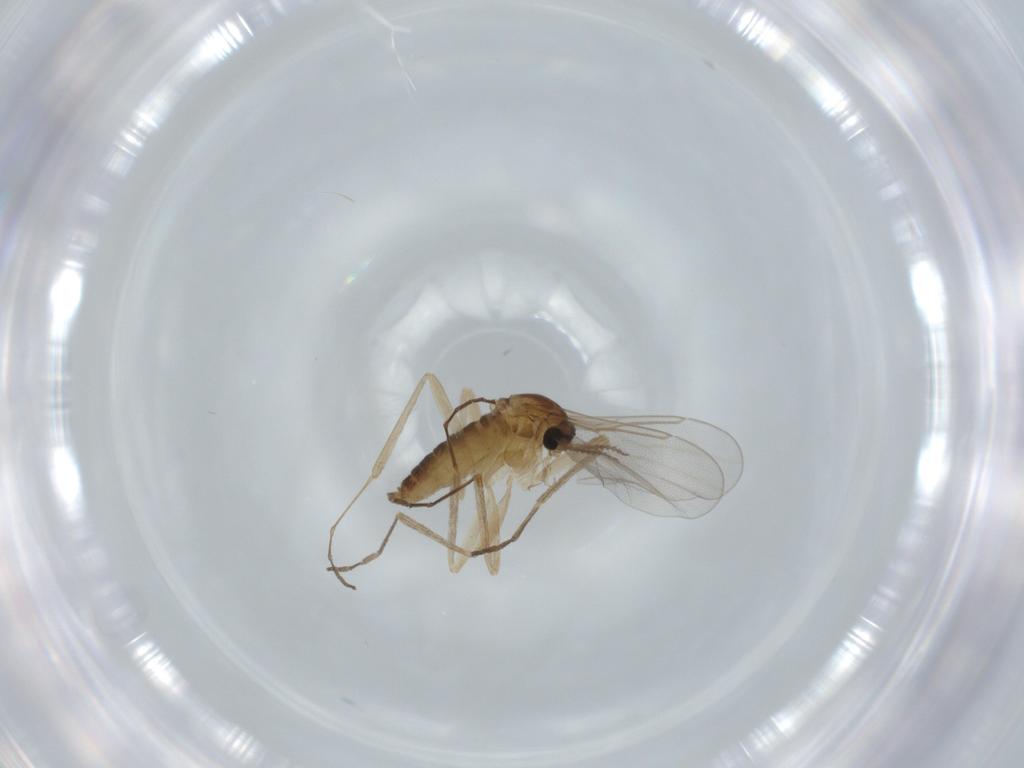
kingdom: Animalia
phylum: Arthropoda
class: Insecta
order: Diptera
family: Cecidomyiidae
